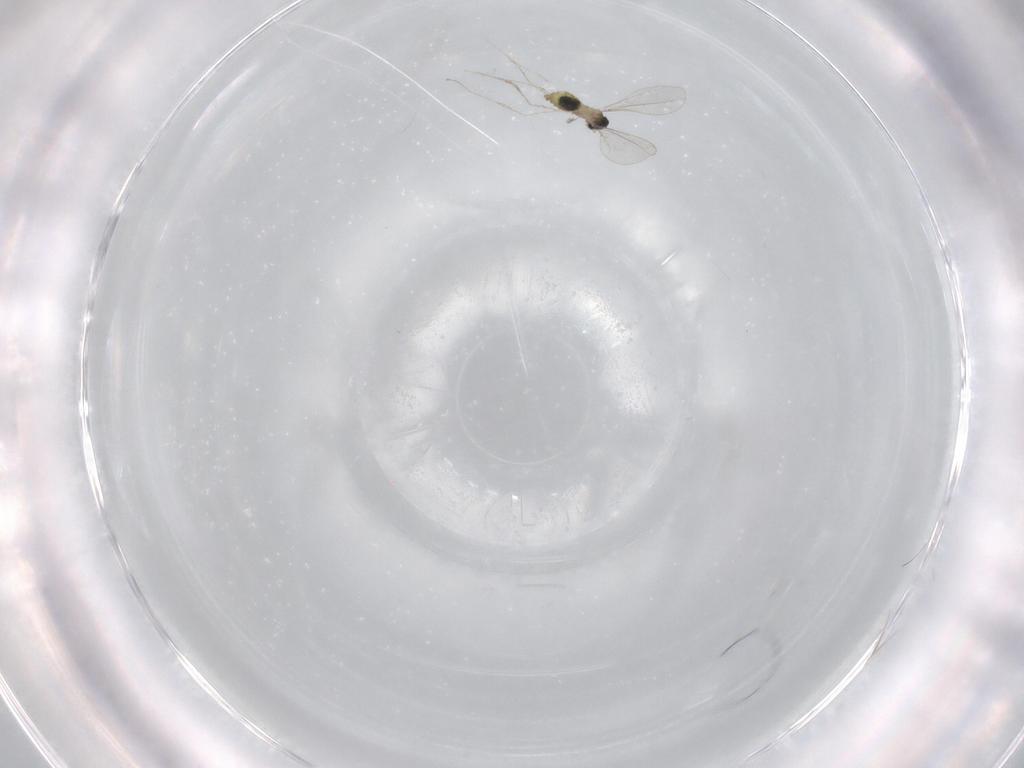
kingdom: Animalia
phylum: Arthropoda
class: Insecta
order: Diptera
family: Cecidomyiidae
